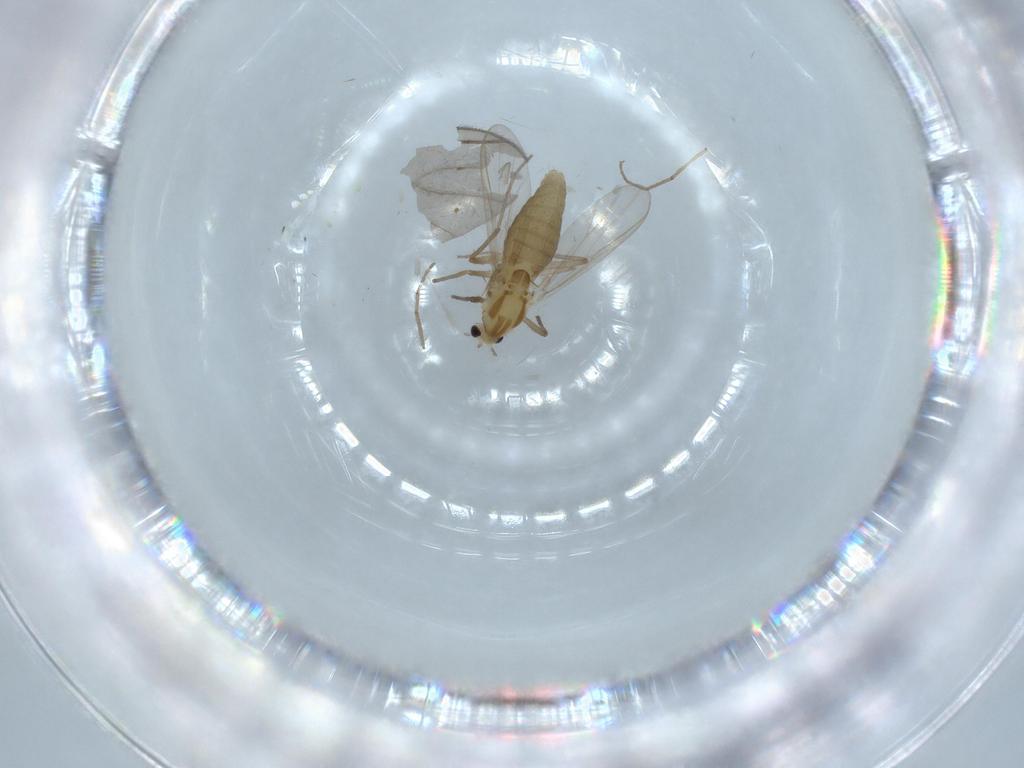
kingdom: Animalia
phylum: Arthropoda
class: Insecta
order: Diptera
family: Chironomidae
